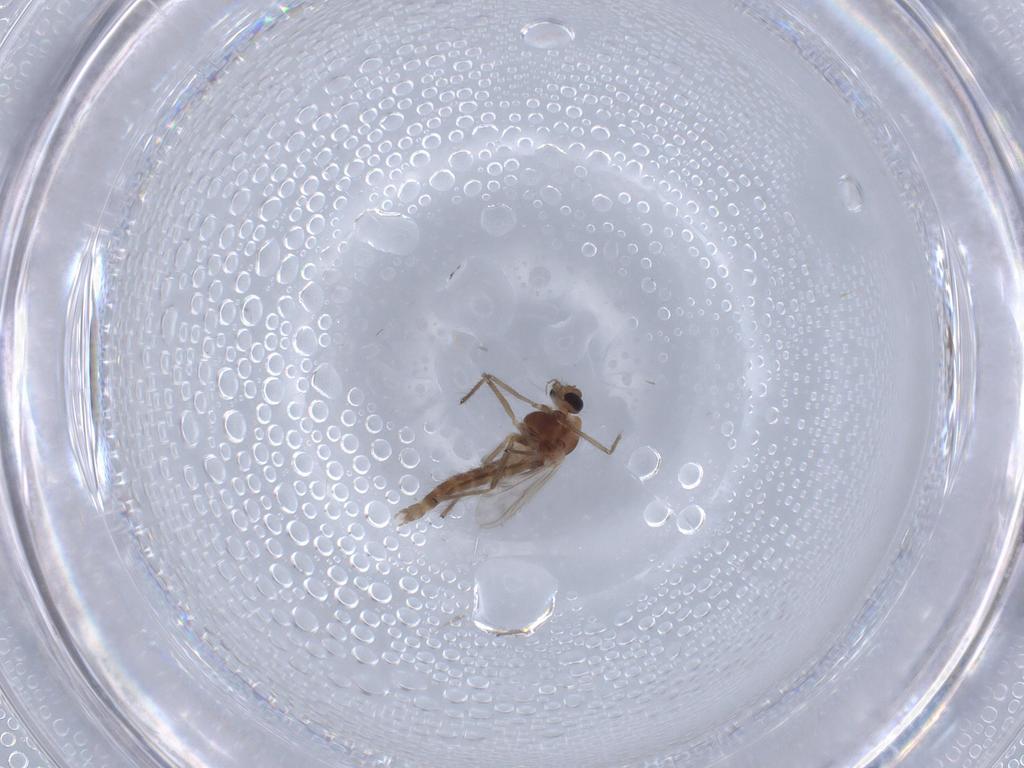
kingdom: Animalia
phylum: Arthropoda
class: Insecta
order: Diptera
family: Chironomidae
